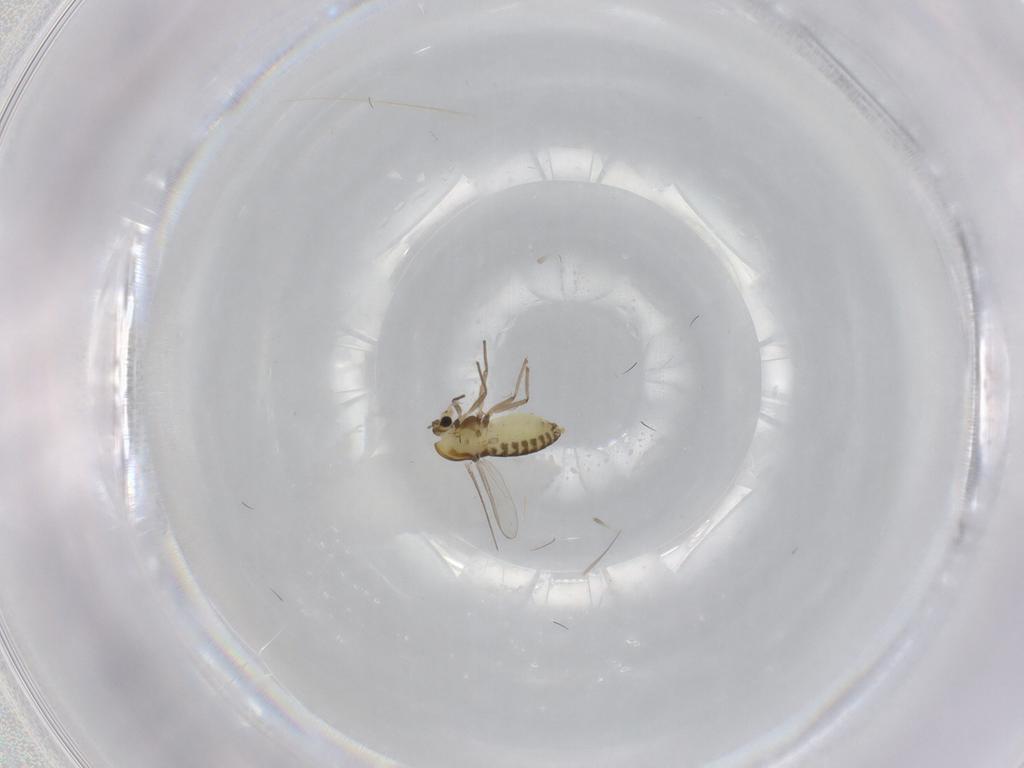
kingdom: Animalia
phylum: Arthropoda
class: Insecta
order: Diptera
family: Chironomidae
